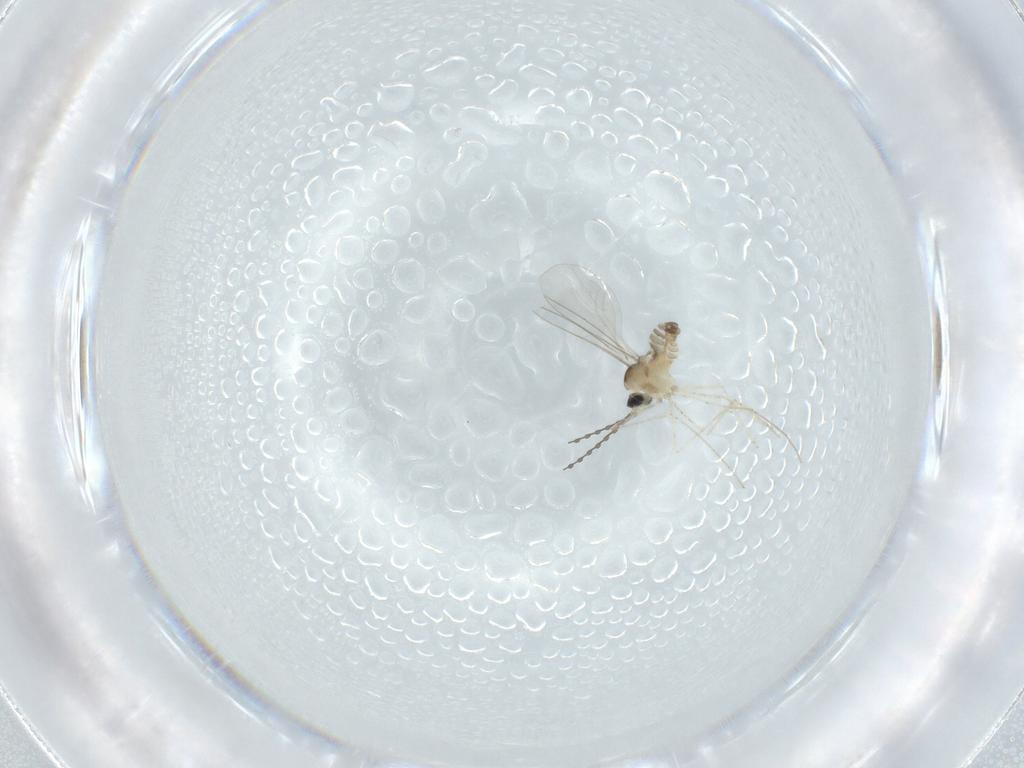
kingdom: Animalia
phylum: Arthropoda
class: Insecta
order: Diptera
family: Cecidomyiidae
